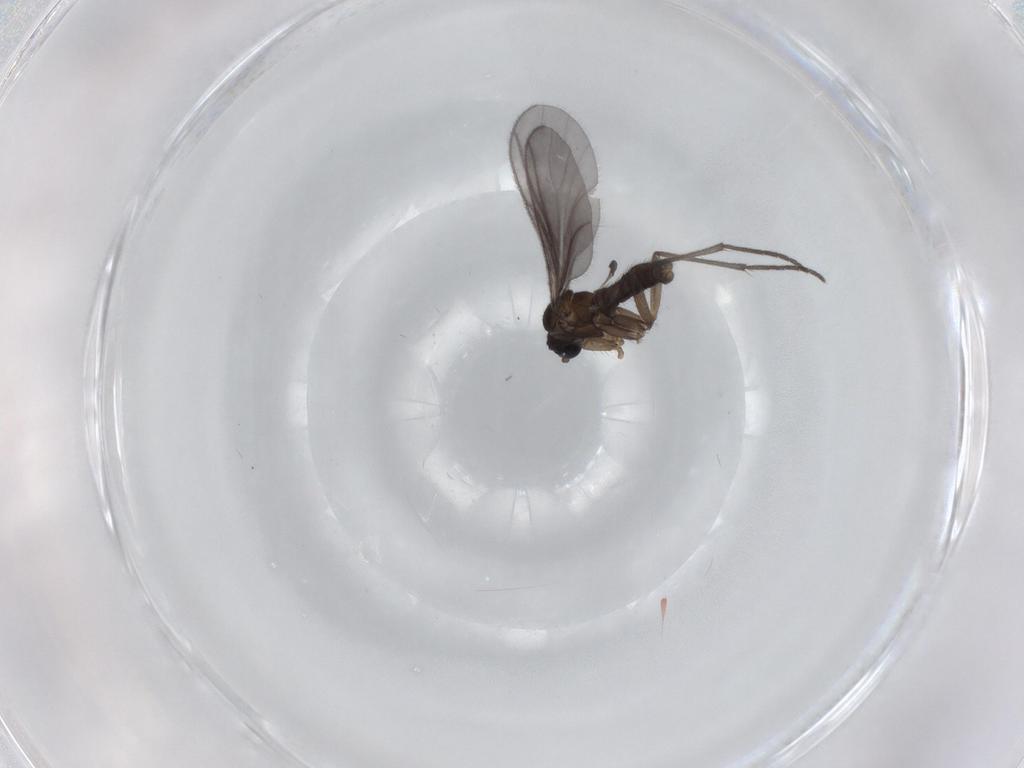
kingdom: Animalia
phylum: Arthropoda
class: Insecta
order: Diptera
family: Sciaridae
